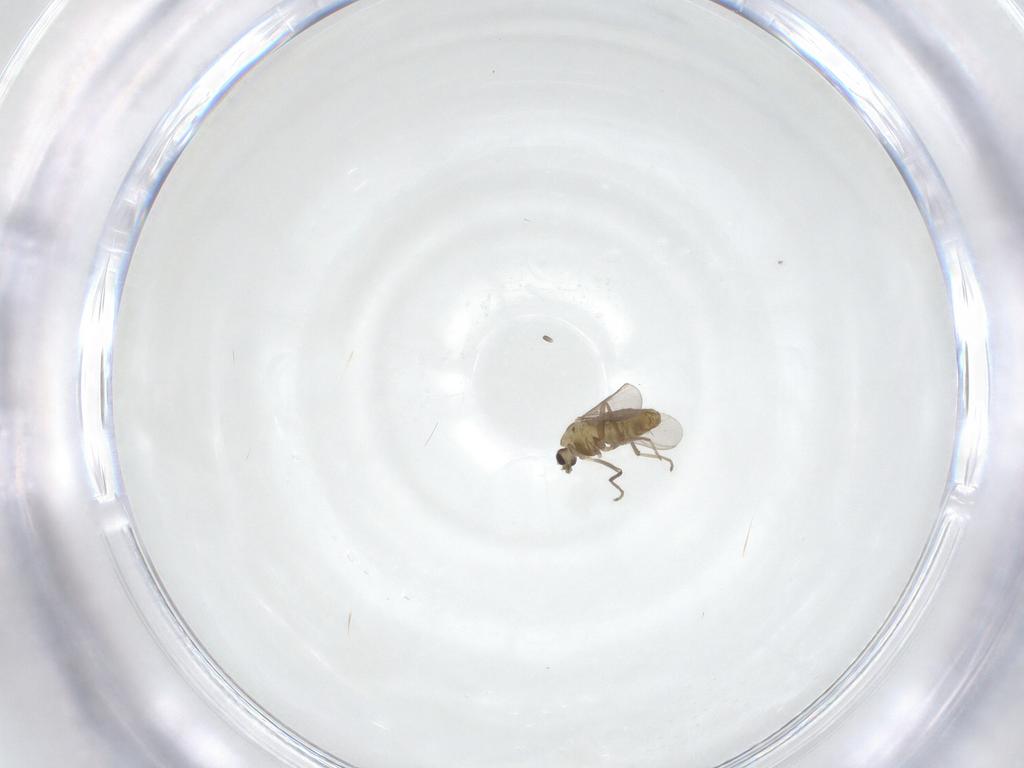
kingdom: Animalia
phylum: Arthropoda
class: Insecta
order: Diptera
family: Chironomidae
